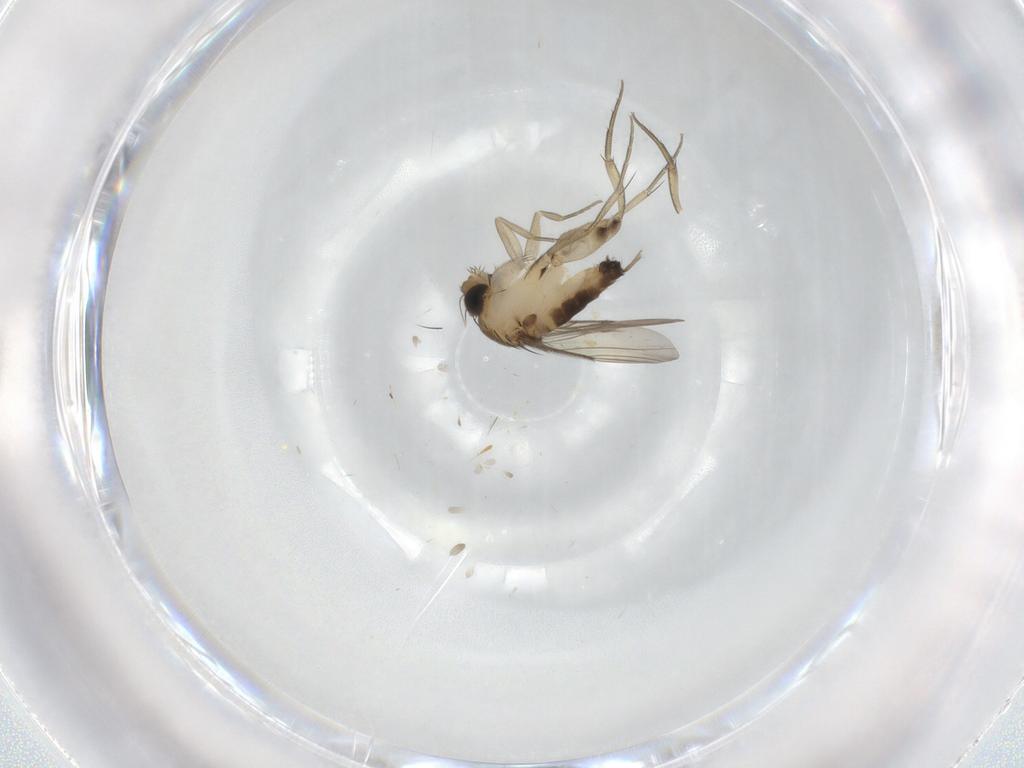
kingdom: Animalia
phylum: Arthropoda
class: Insecta
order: Diptera
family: Phoridae
